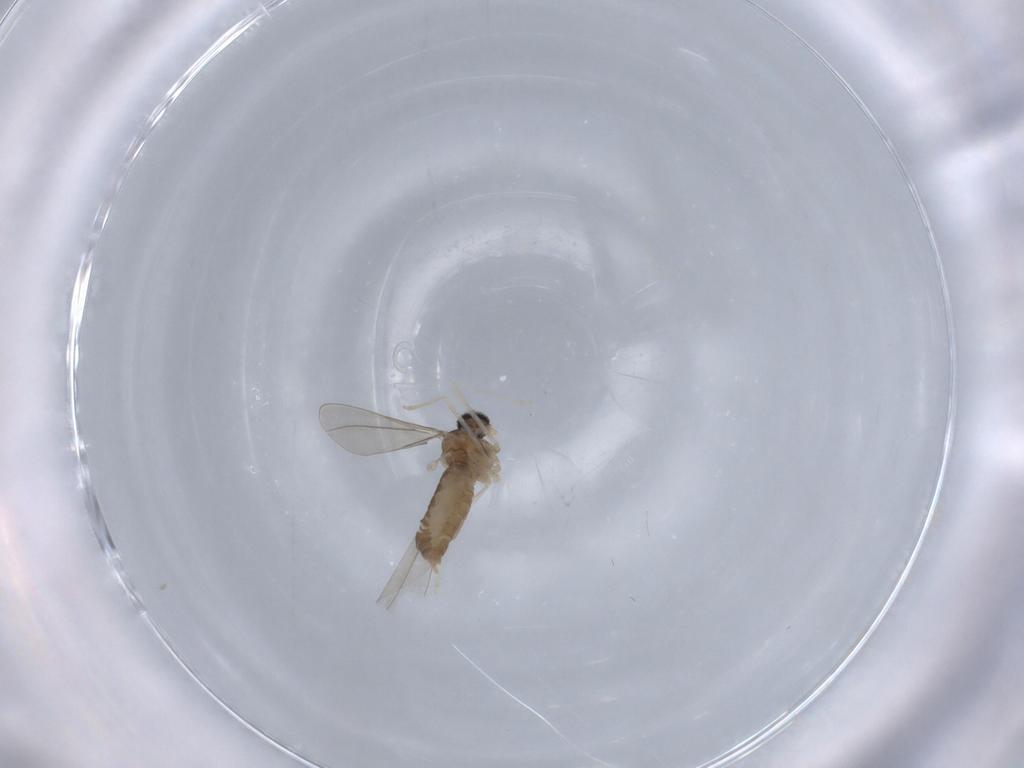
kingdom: Animalia
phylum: Arthropoda
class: Insecta
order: Diptera
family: Cecidomyiidae
